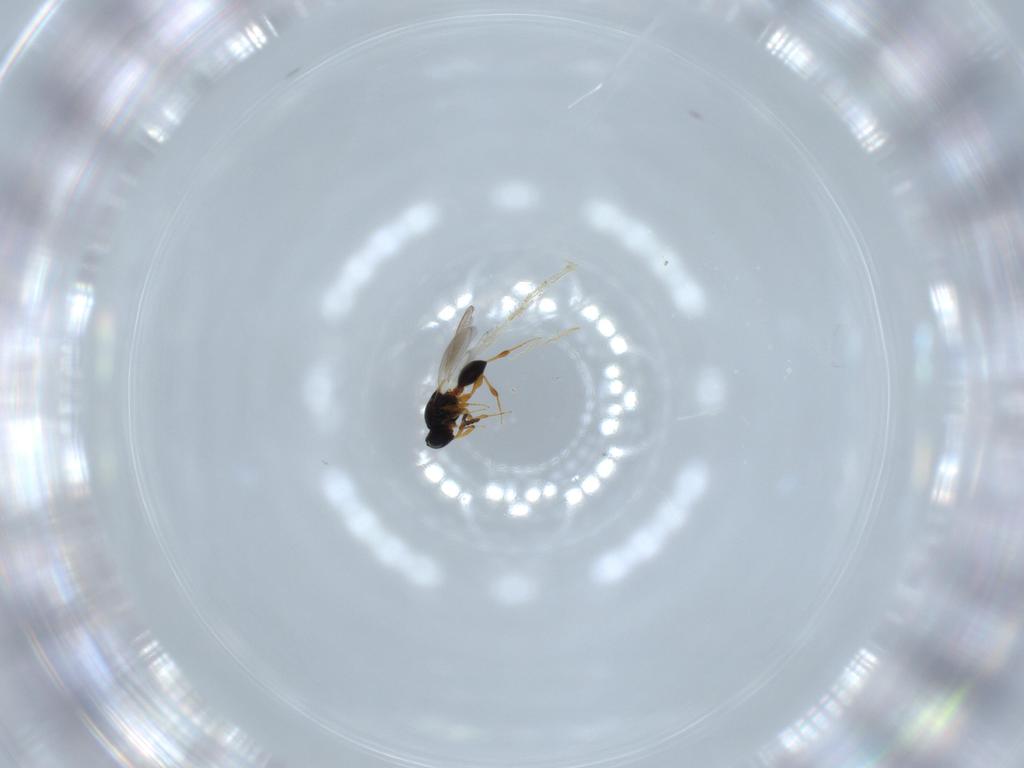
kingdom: Animalia
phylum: Arthropoda
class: Insecta
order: Hymenoptera
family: Platygastridae
